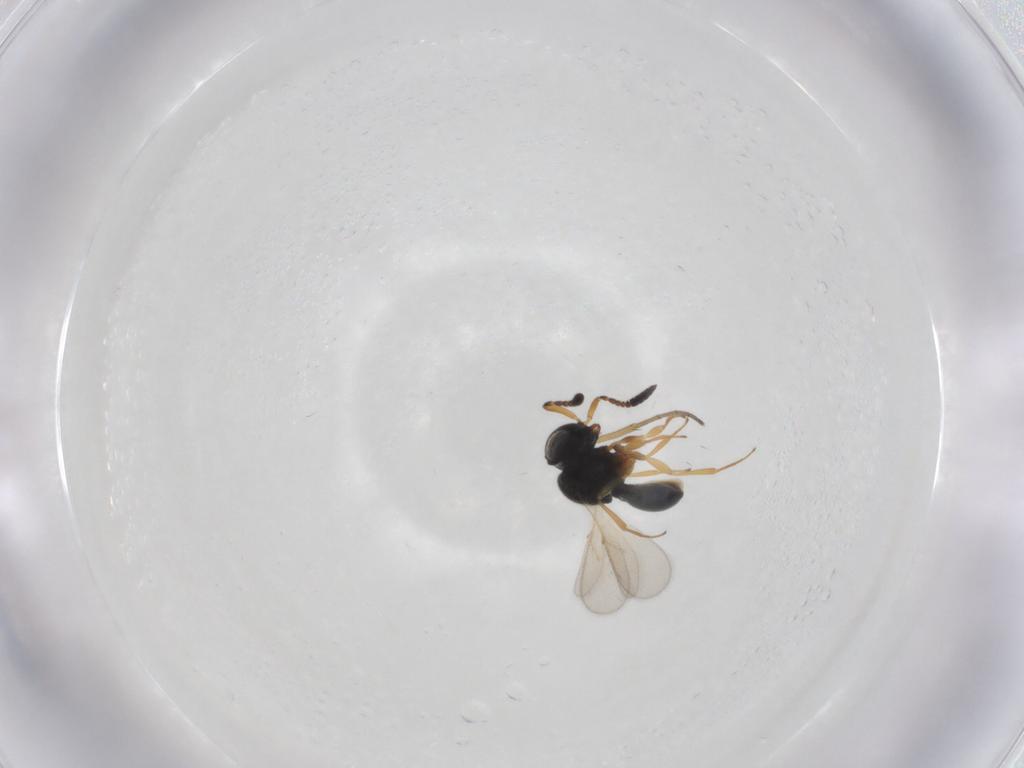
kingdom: Animalia
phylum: Arthropoda
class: Insecta
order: Hymenoptera
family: Scelionidae
